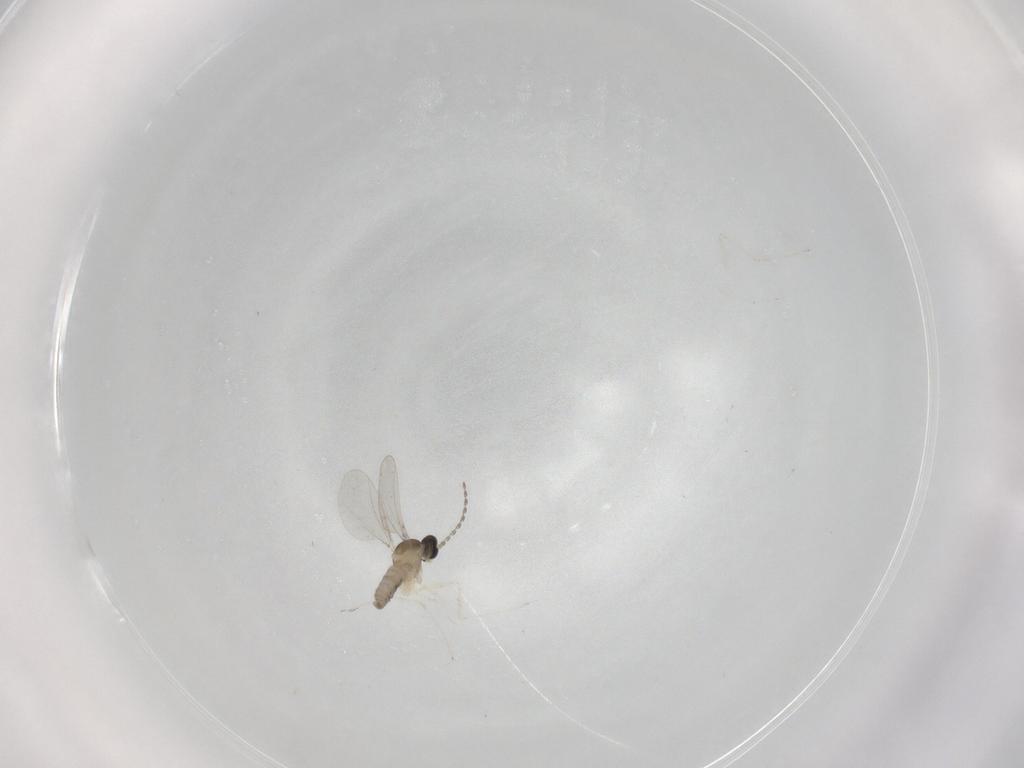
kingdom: Animalia
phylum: Arthropoda
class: Insecta
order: Diptera
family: Cecidomyiidae
